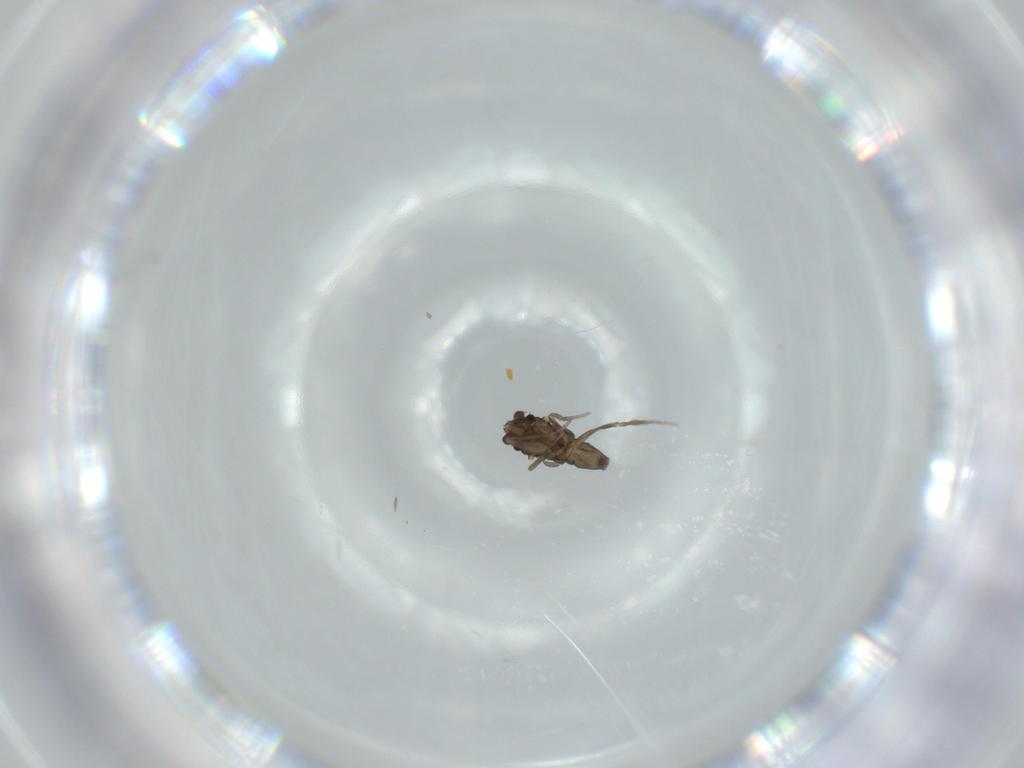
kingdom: Animalia
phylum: Arthropoda
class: Insecta
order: Diptera
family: Phoridae
